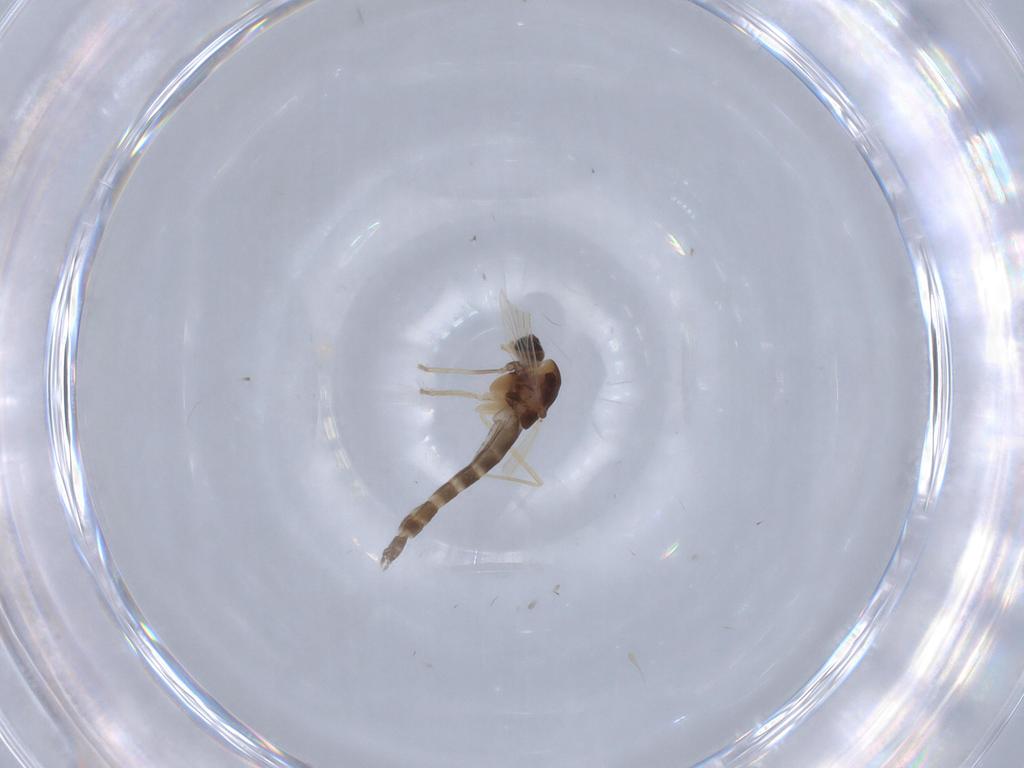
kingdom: Animalia
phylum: Arthropoda
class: Insecta
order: Diptera
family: Chironomidae
